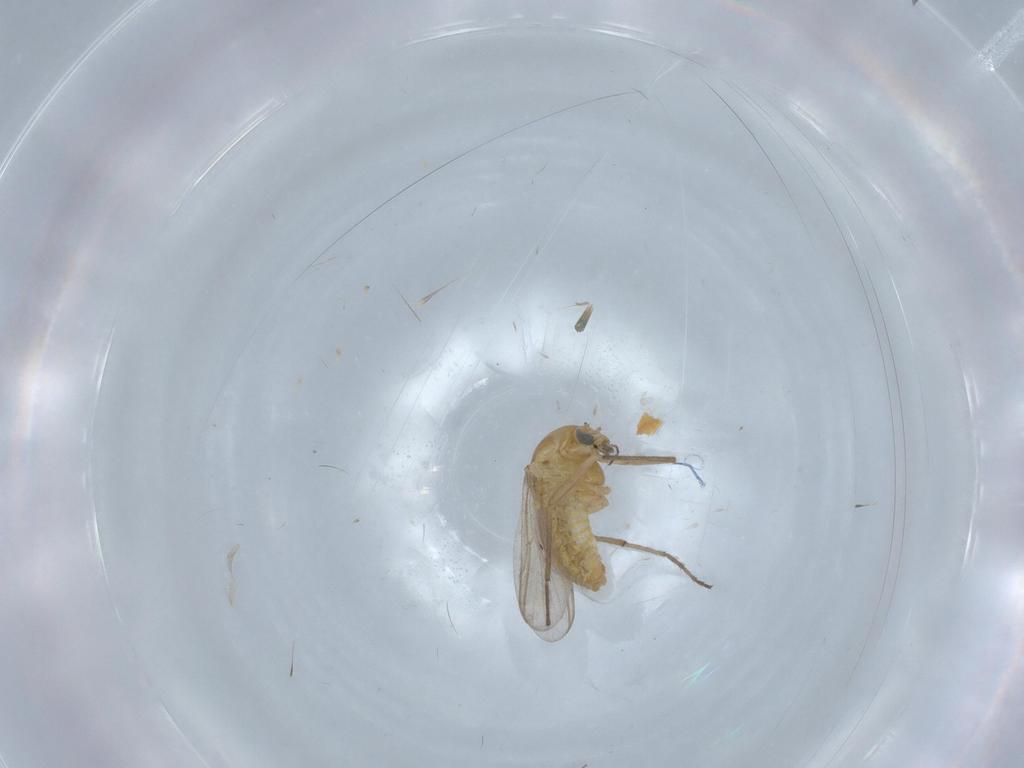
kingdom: Animalia
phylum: Arthropoda
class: Insecta
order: Diptera
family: Chironomidae
